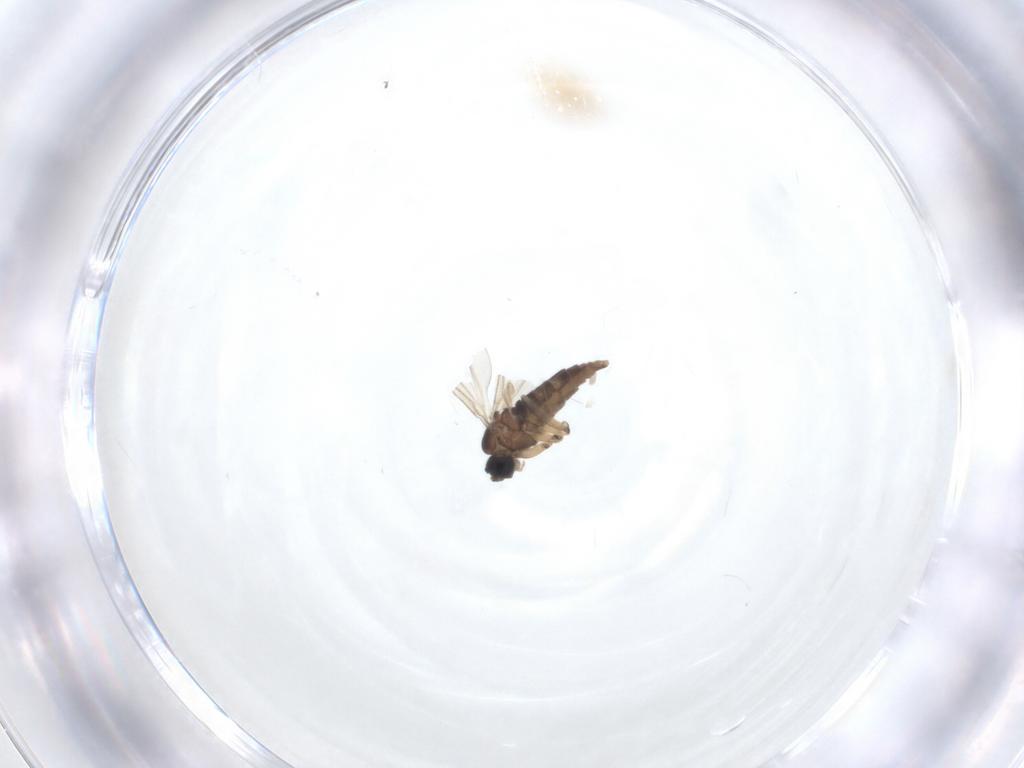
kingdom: Animalia
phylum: Arthropoda
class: Insecta
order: Diptera
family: Sciaridae
